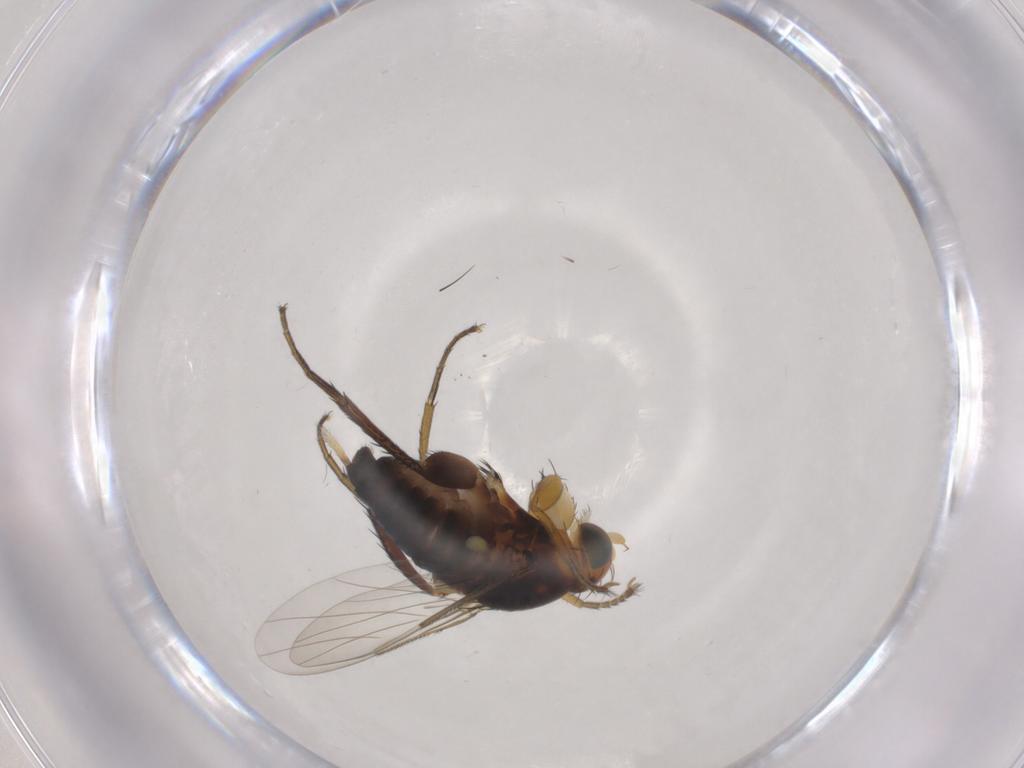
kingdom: Animalia
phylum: Arthropoda
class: Insecta
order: Diptera
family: Phoridae
